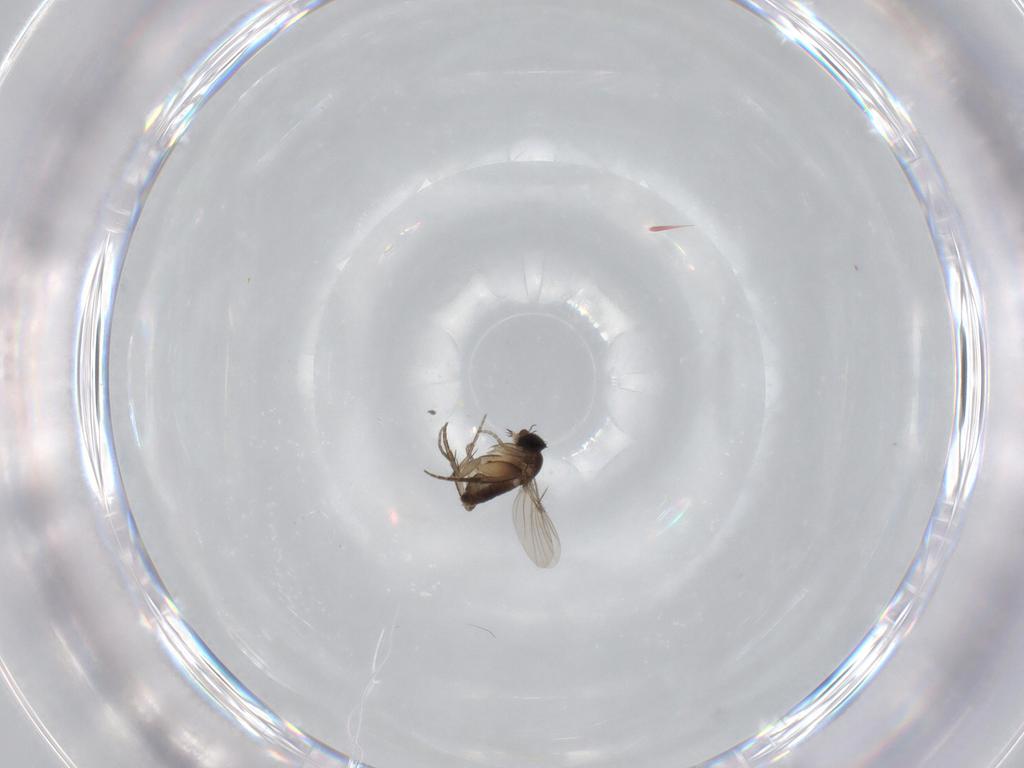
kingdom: Animalia
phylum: Arthropoda
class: Insecta
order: Diptera
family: Phoridae
